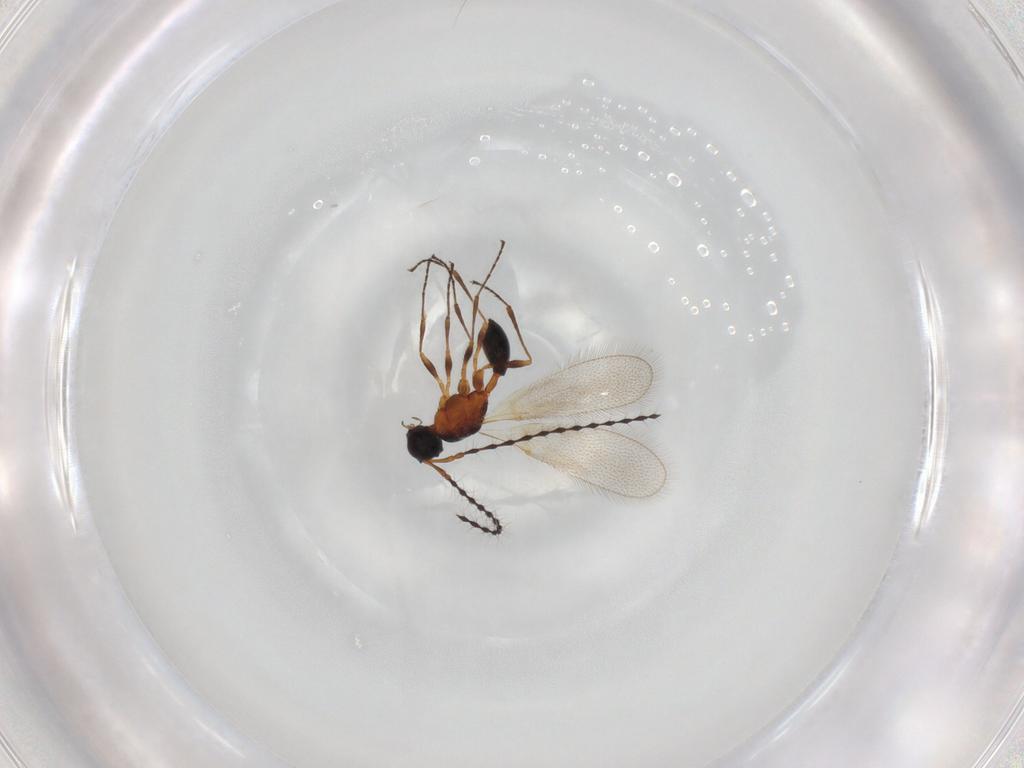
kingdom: Animalia
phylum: Arthropoda
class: Insecta
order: Hymenoptera
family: Diapriidae
